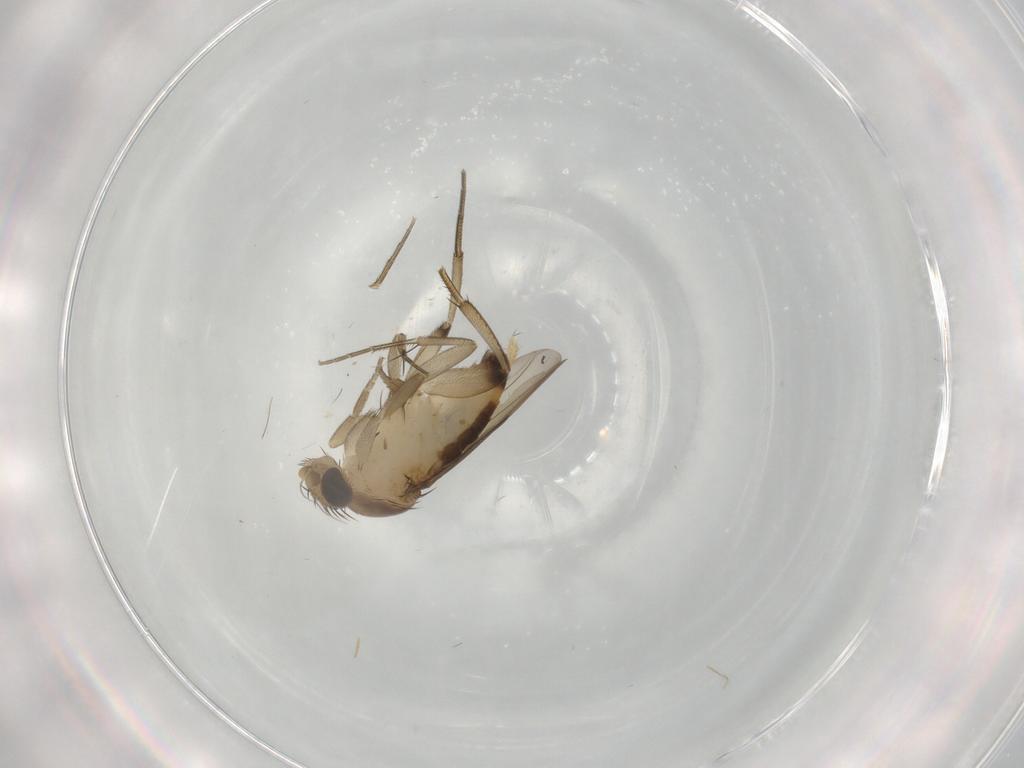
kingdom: Animalia
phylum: Arthropoda
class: Insecta
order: Diptera
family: Phoridae
